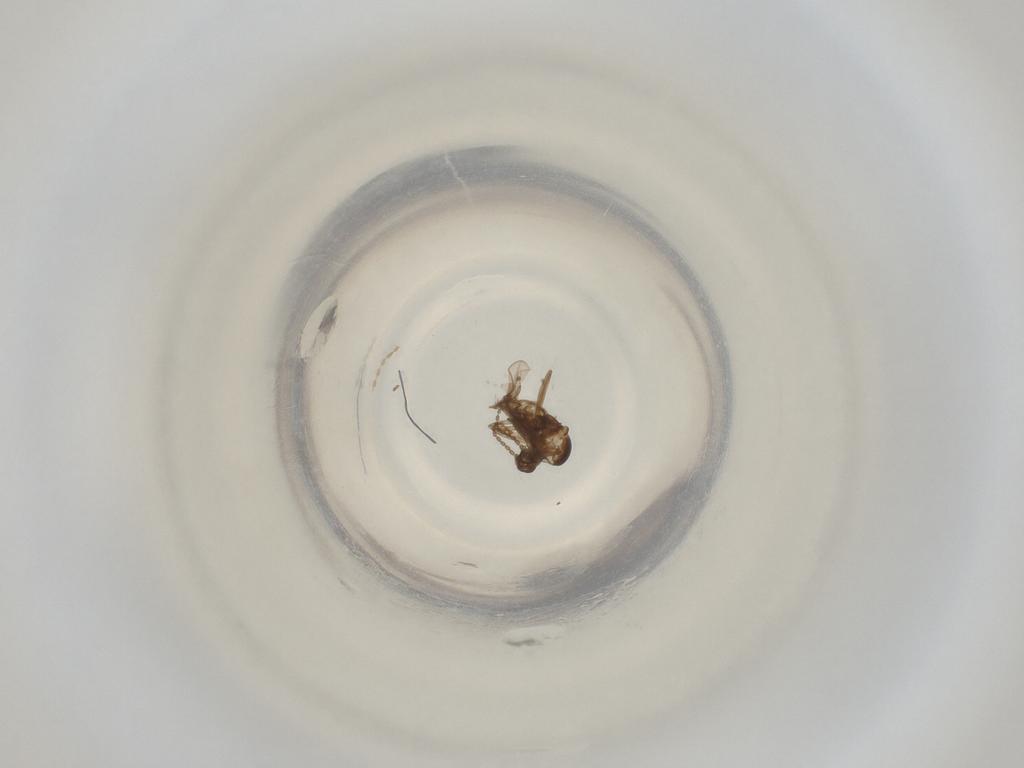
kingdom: Animalia
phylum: Arthropoda
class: Insecta
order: Diptera
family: Cecidomyiidae
